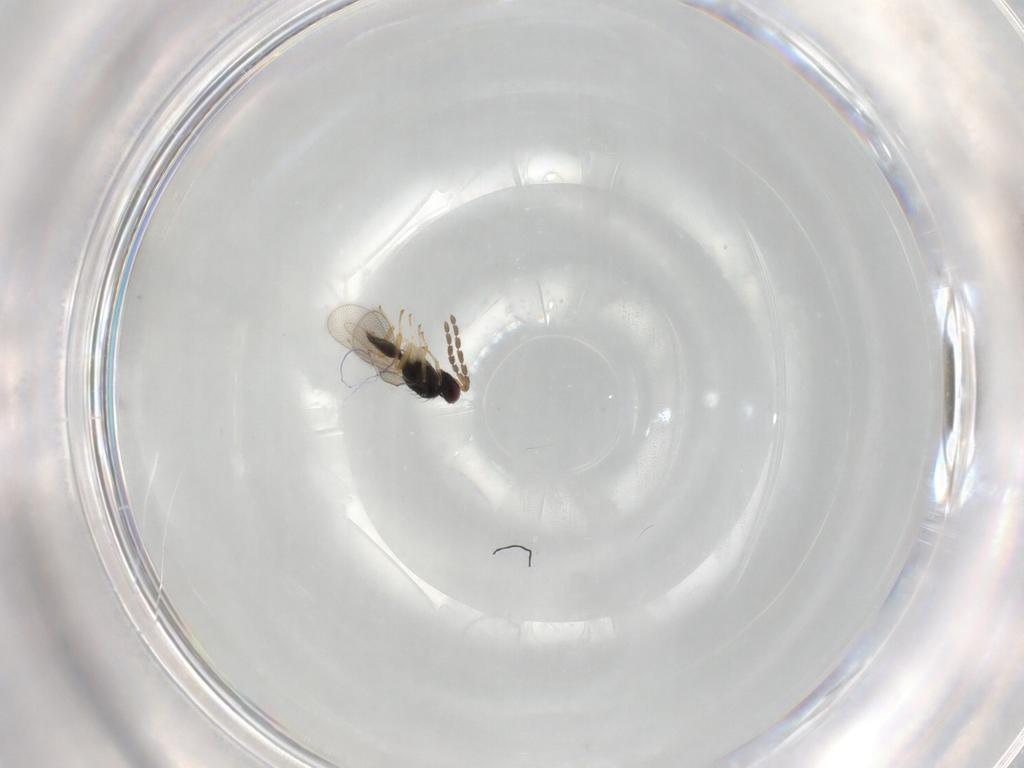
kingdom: Animalia
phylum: Arthropoda
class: Insecta
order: Hymenoptera
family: Eulophidae
